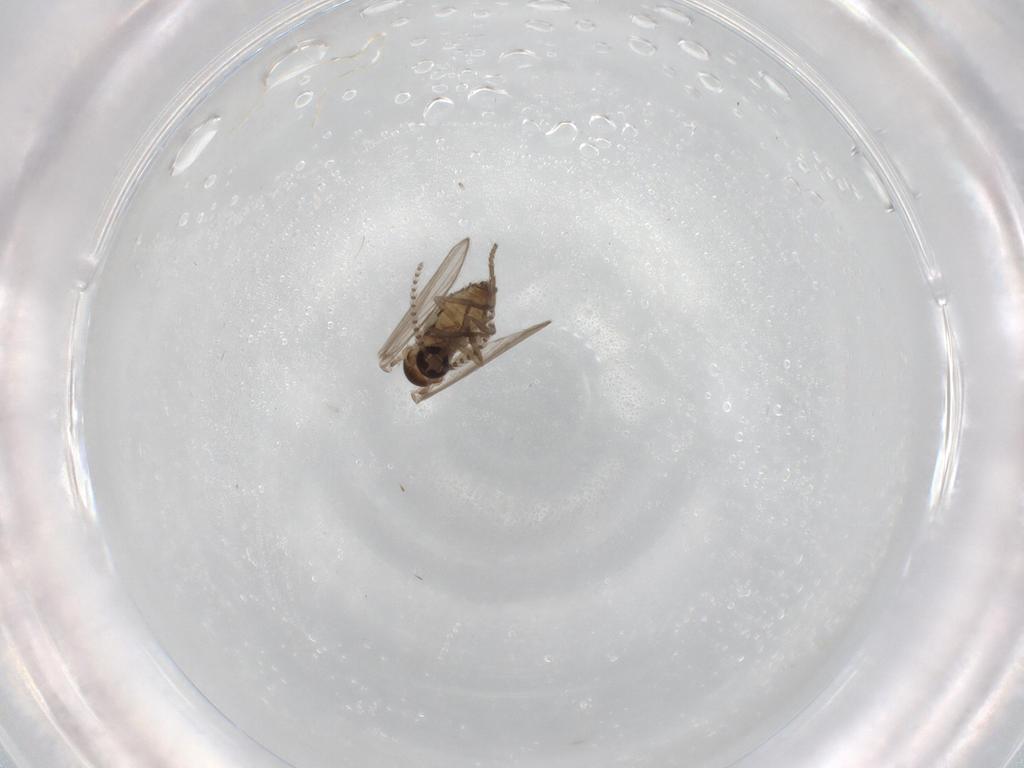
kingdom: Animalia
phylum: Arthropoda
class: Insecta
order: Diptera
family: Psychodidae
